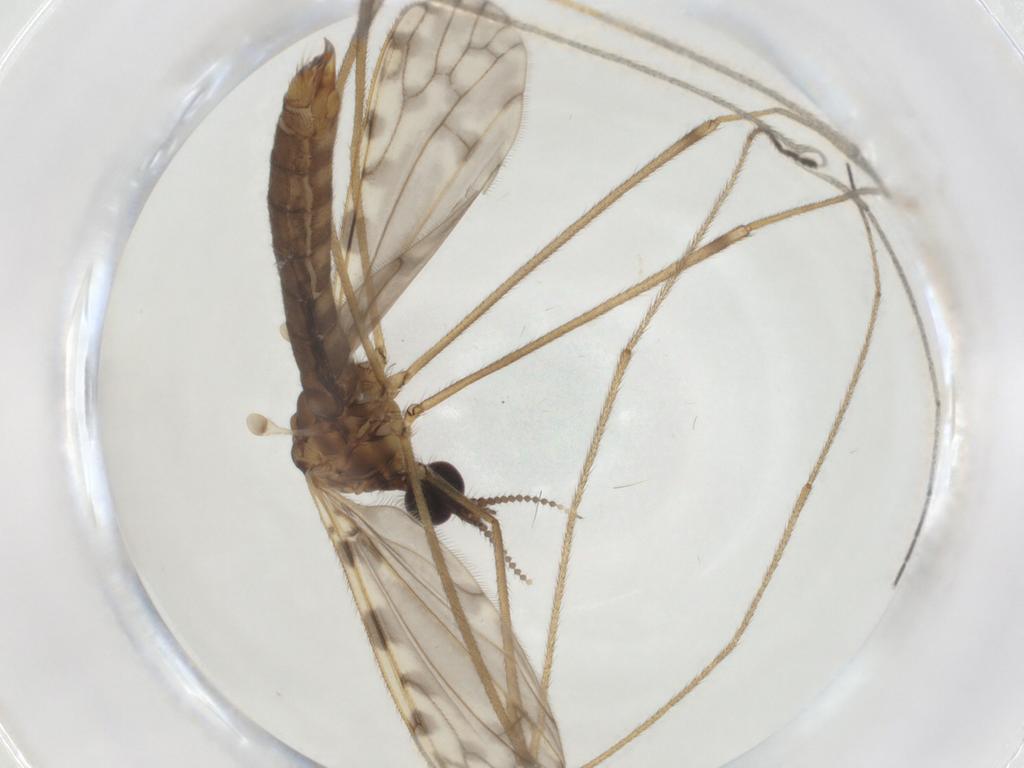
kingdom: Animalia
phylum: Arthropoda
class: Insecta
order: Diptera
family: Limoniidae
